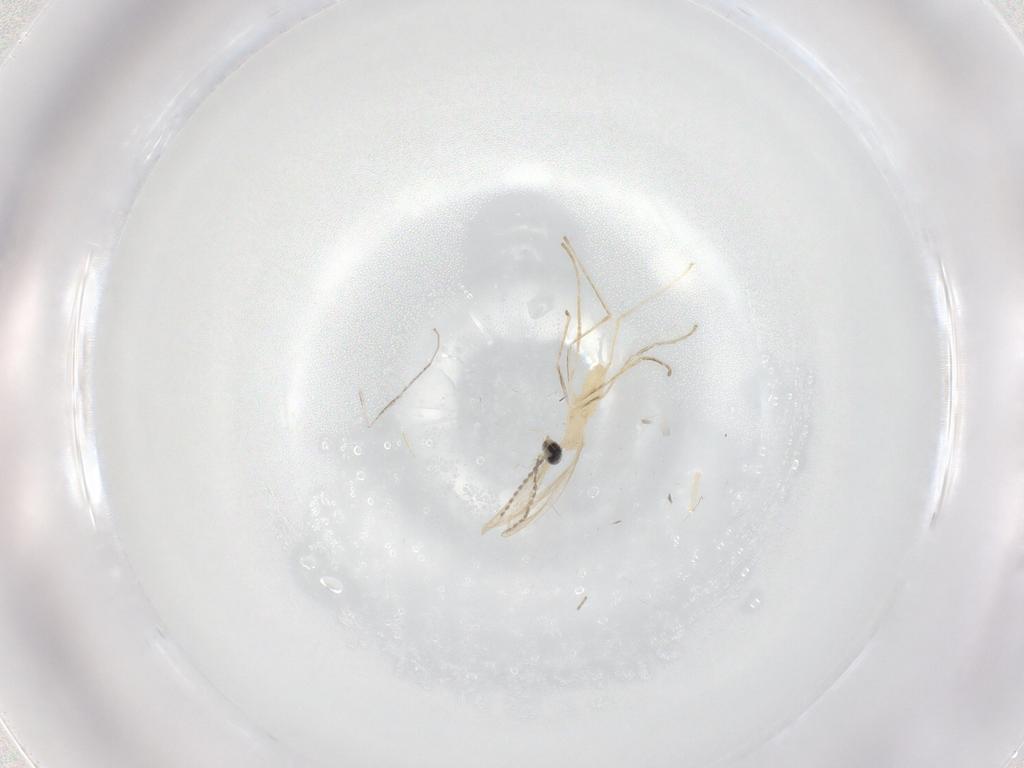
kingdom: Animalia
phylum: Arthropoda
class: Insecta
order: Diptera
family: Cecidomyiidae
